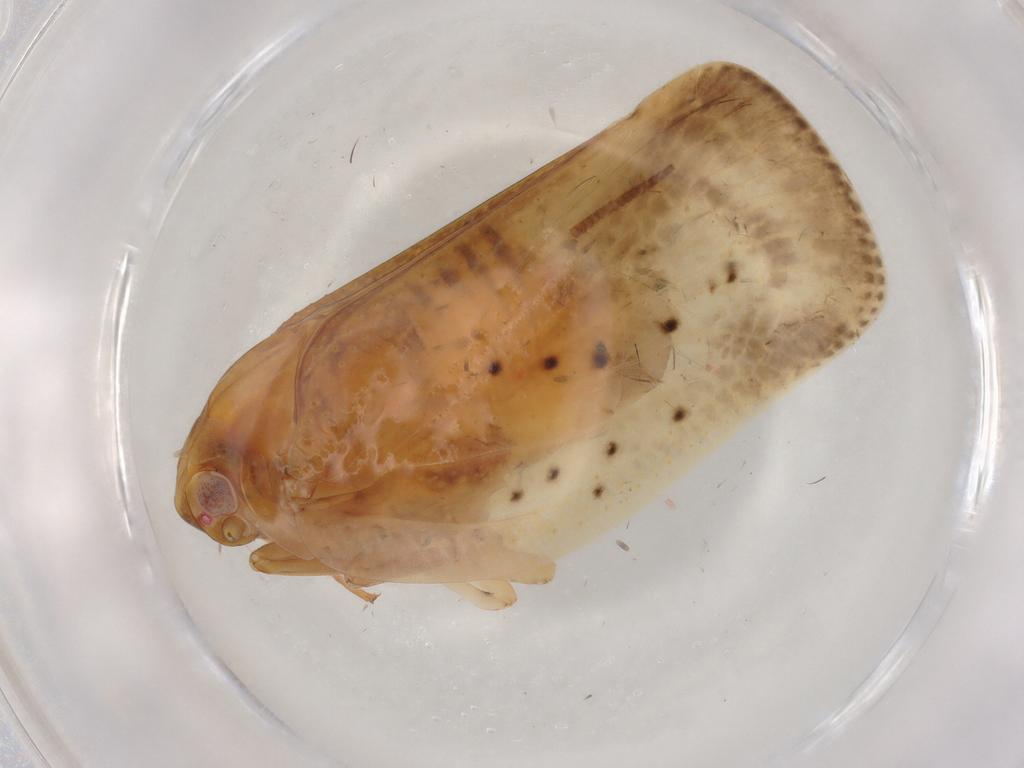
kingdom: Animalia
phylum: Arthropoda
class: Insecta
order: Hemiptera
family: Flatidae
